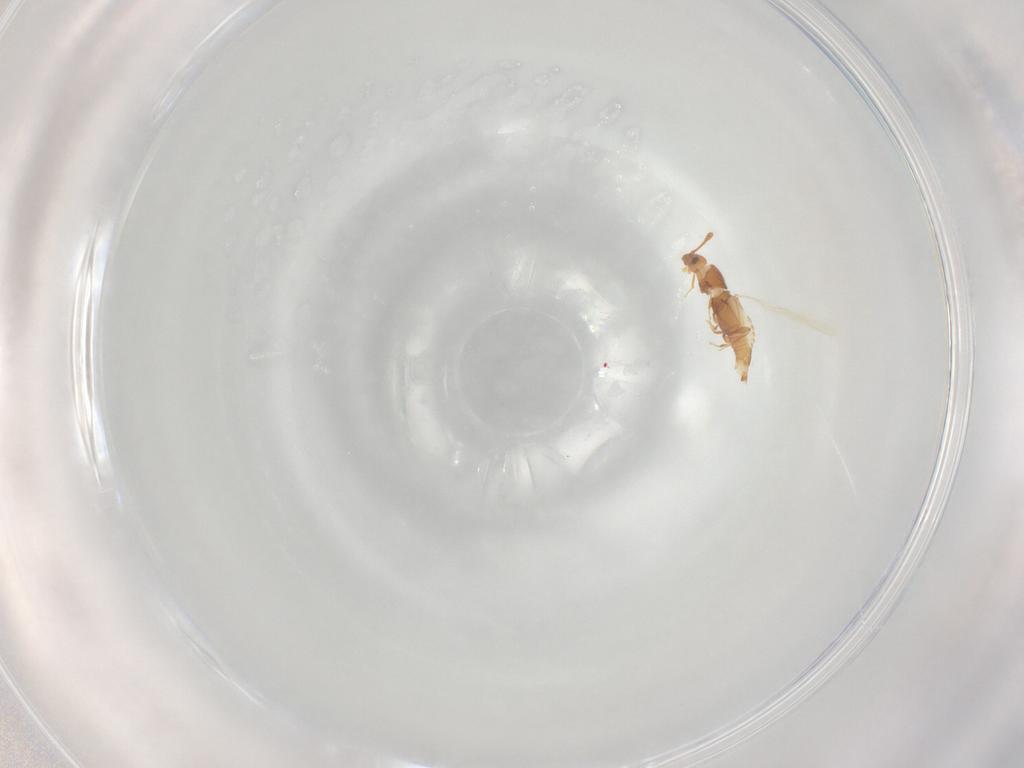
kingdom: Animalia
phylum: Arthropoda
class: Insecta
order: Coleoptera
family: Staphylinidae
